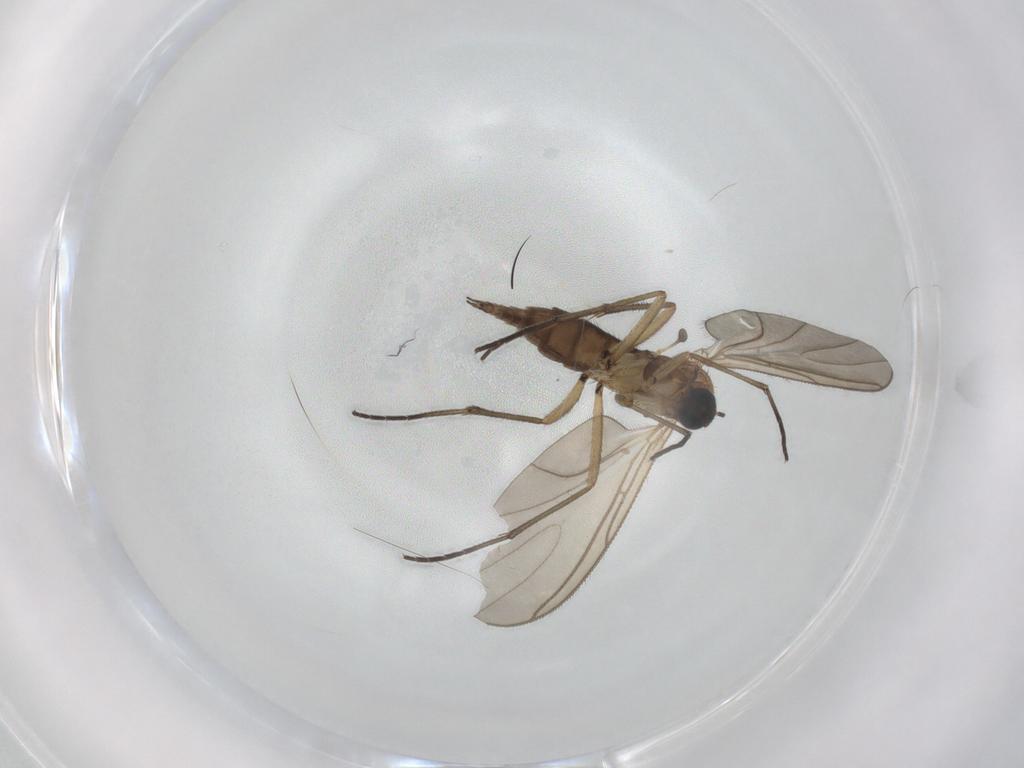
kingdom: Animalia
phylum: Arthropoda
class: Insecta
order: Diptera
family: Sciaridae
